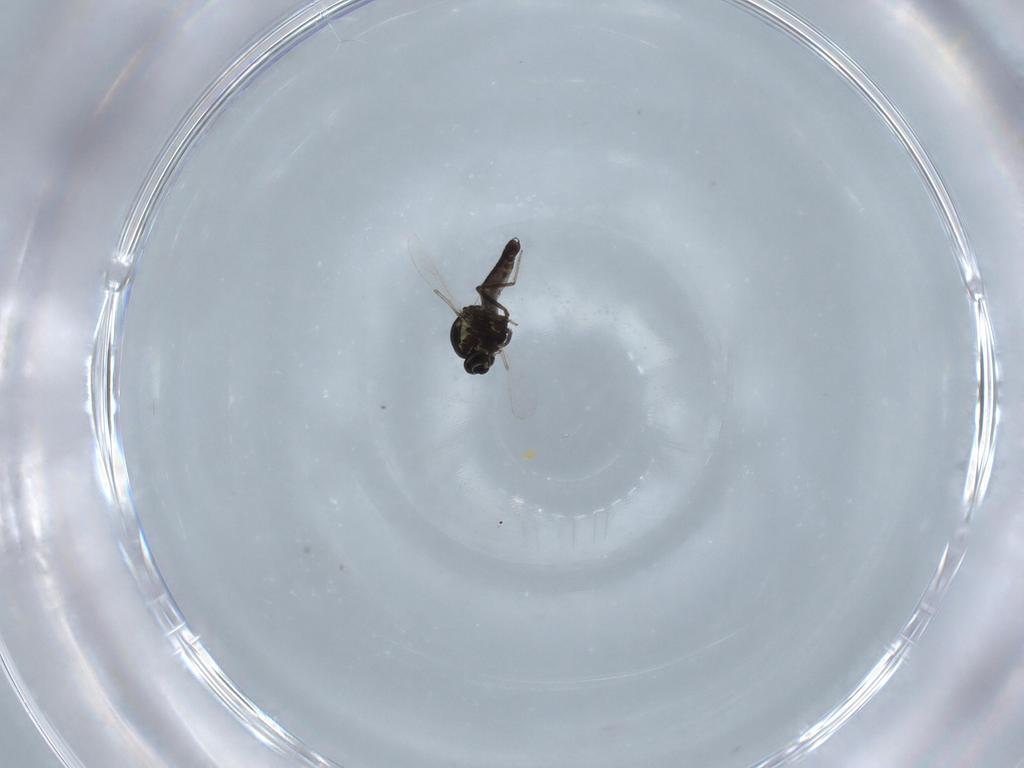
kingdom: Animalia
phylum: Arthropoda
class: Insecta
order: Diptera
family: Ceratopogonidae
